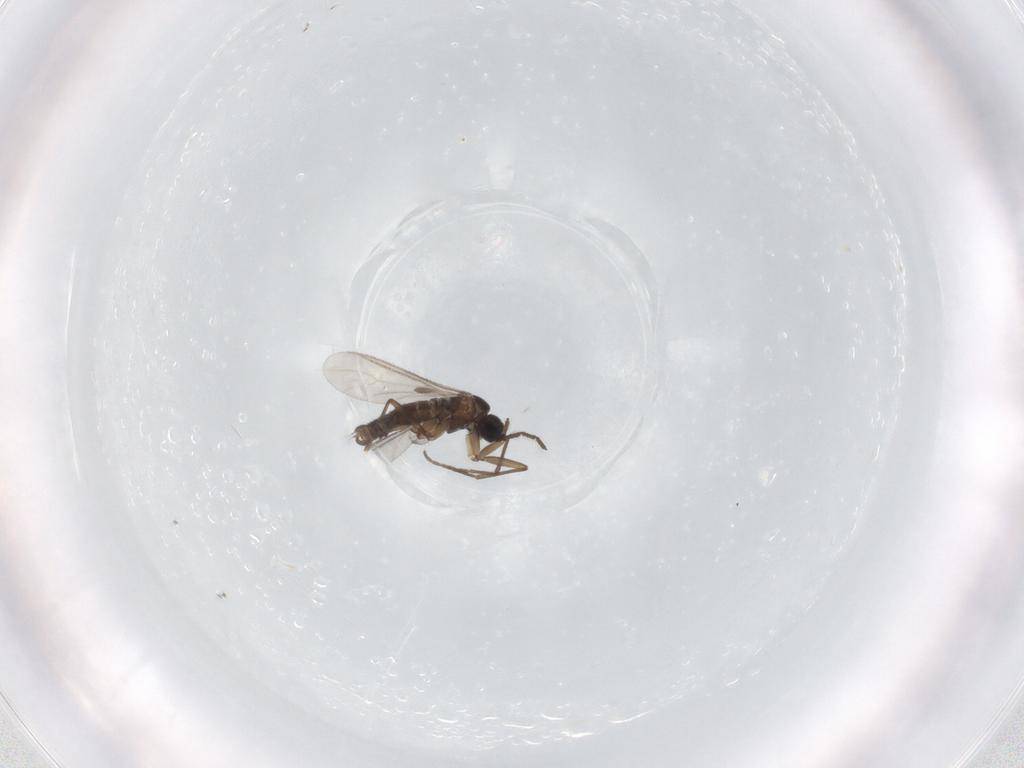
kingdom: Animalia
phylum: Arthropoda
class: Insecta
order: Diptera
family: Sciaridae
